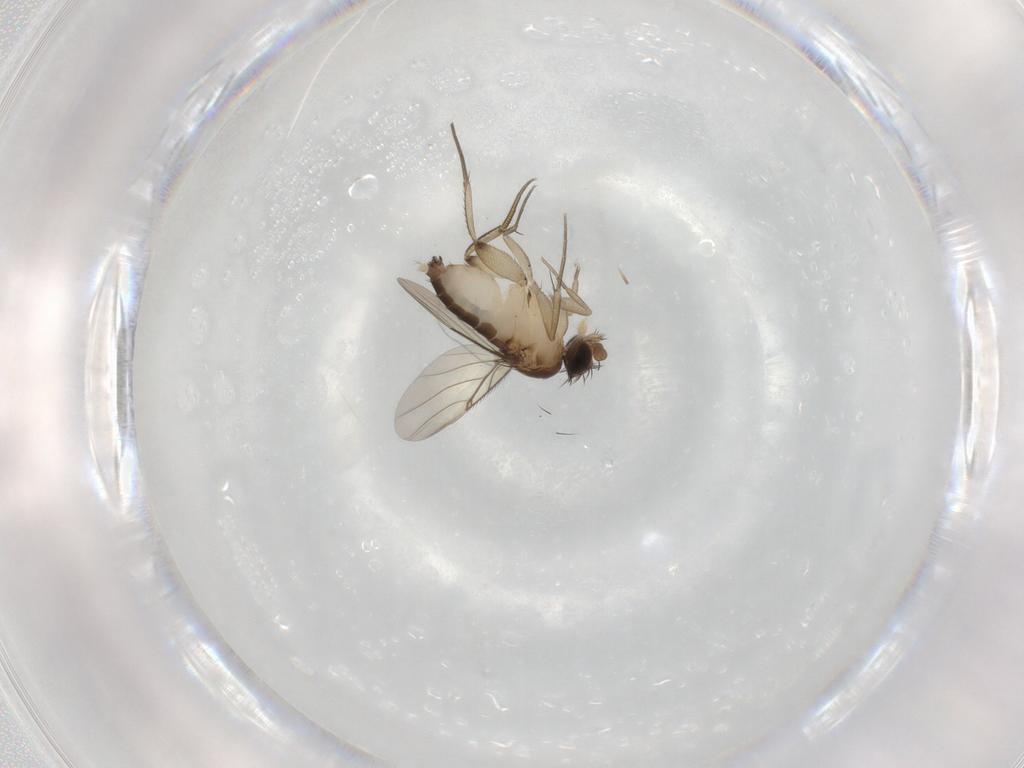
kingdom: Animalia
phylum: Arthropoda
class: Insecta
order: Diptera
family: Phoridae
